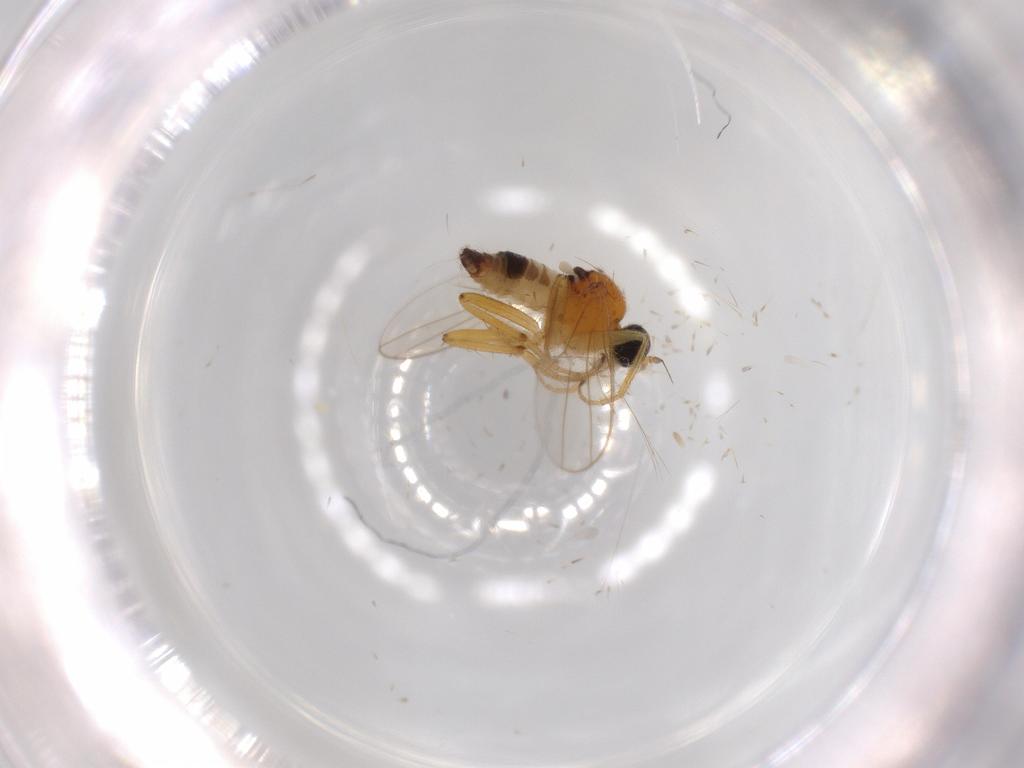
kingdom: Animalia
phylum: Arthropoda
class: Insecta
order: Diptera
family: Hybotidae
